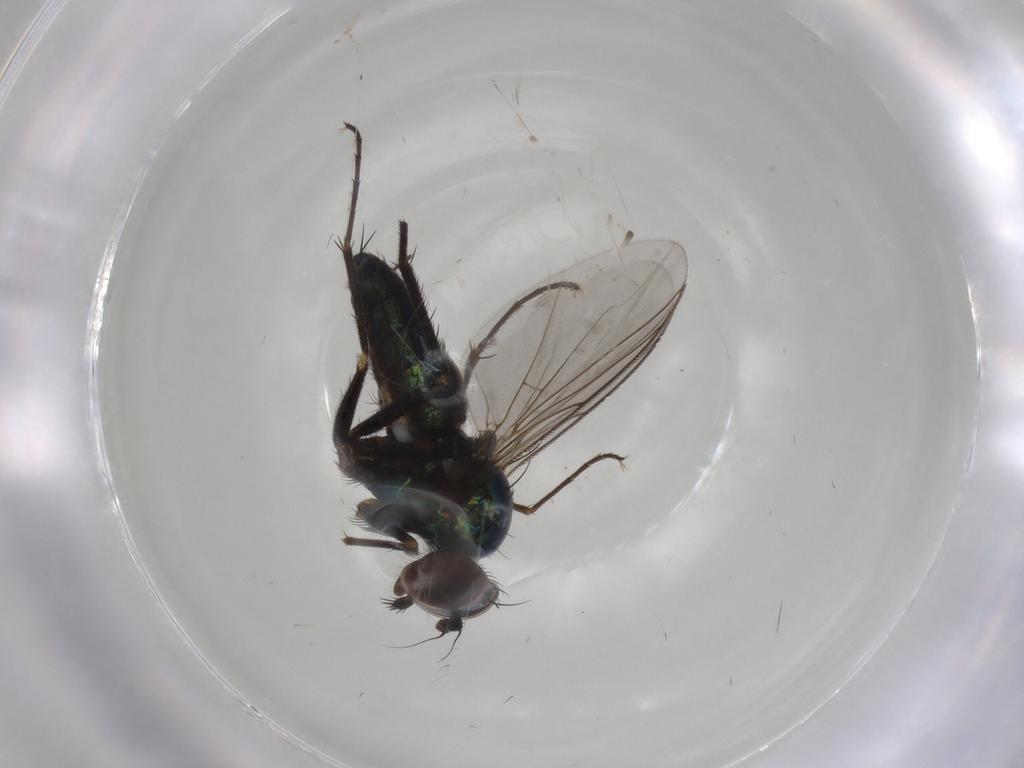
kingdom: Animalia
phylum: Arthropoda
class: Insecta
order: Diptera
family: Dolichopodidae
